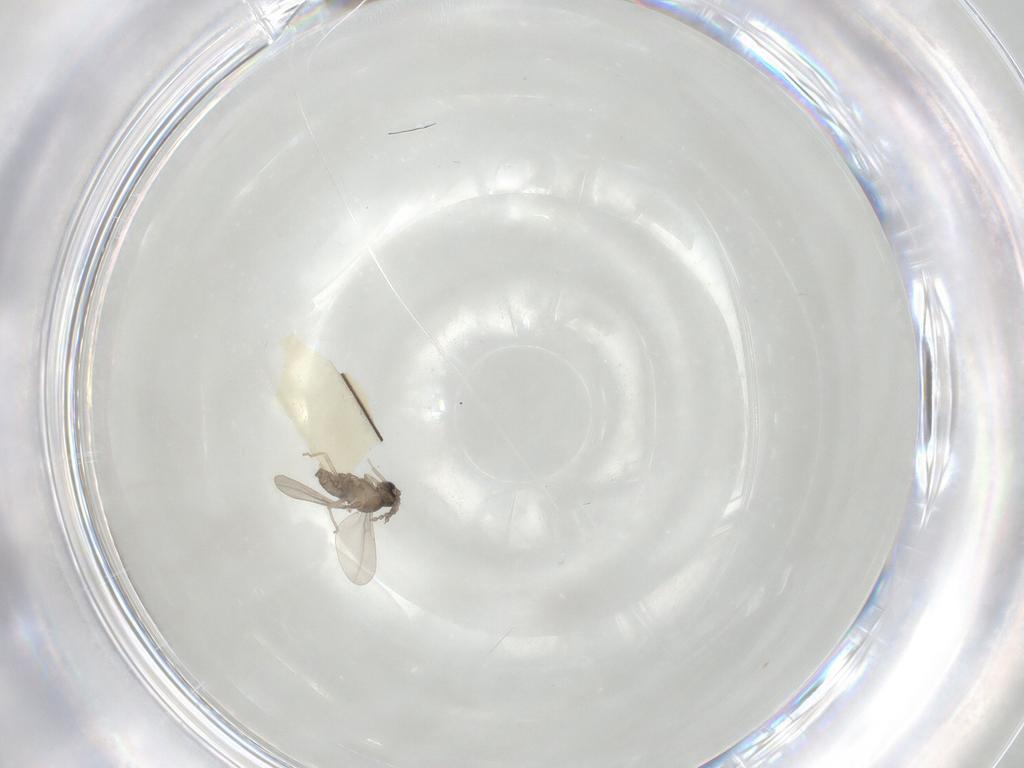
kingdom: Animalia
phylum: Arthropoda
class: Insecta
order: Diptera
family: Cecidomyiidae
